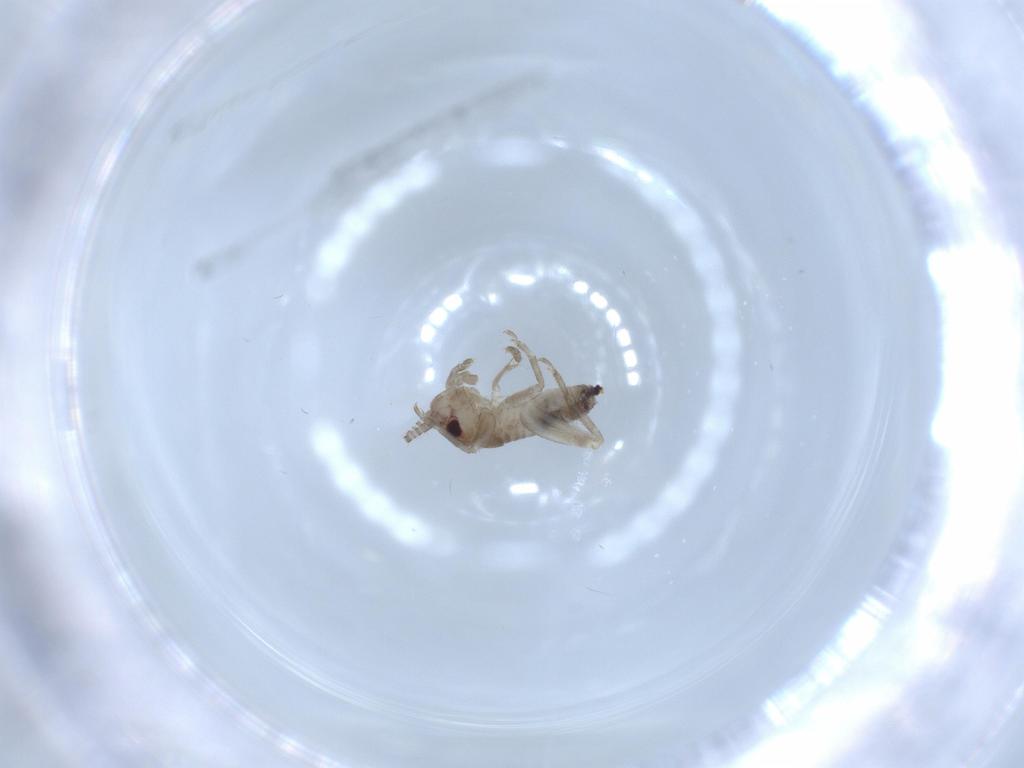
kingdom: Animalia
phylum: Arthropoda
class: Insecta
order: Orthoptera
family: Gryllidae
